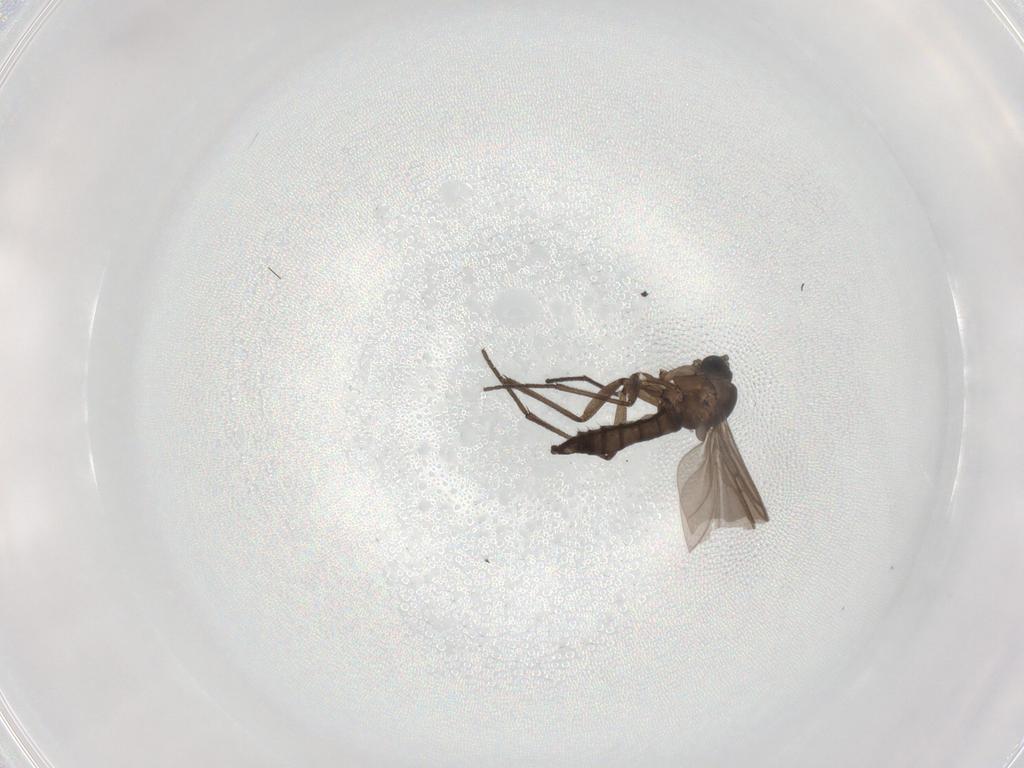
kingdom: Animalia
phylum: Arthropoda
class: Insecta
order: Diptera
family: Sciaridae
